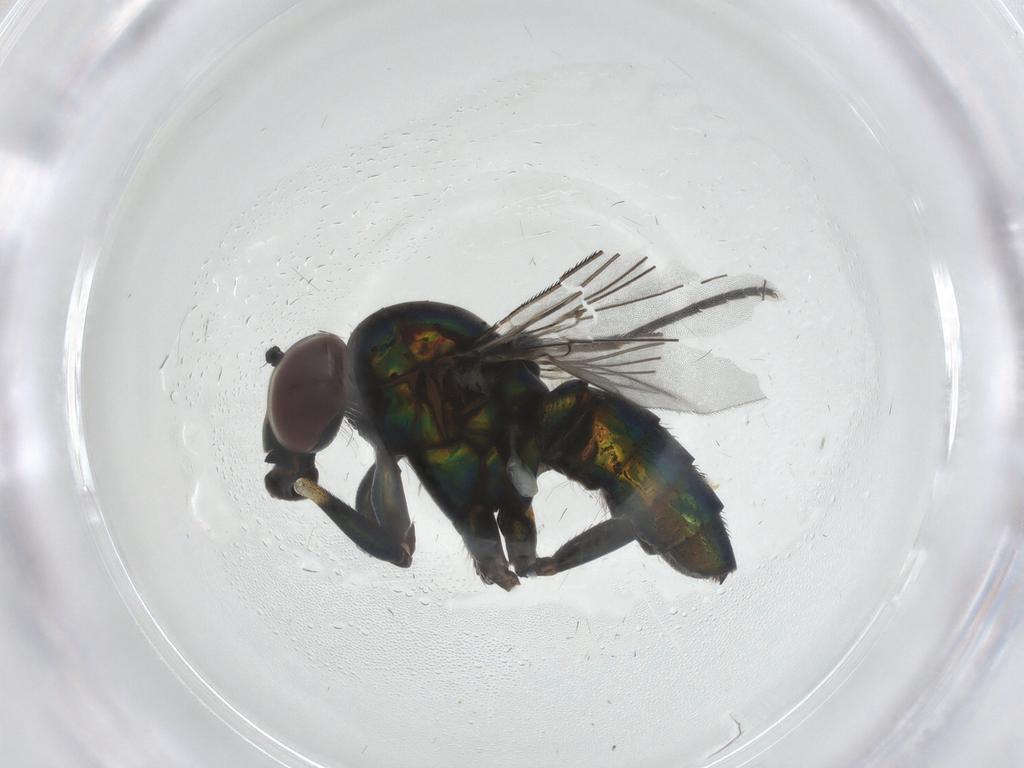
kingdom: Animalia
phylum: Arthropoda
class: Insecta
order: Diptera
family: Dolichopodidae
